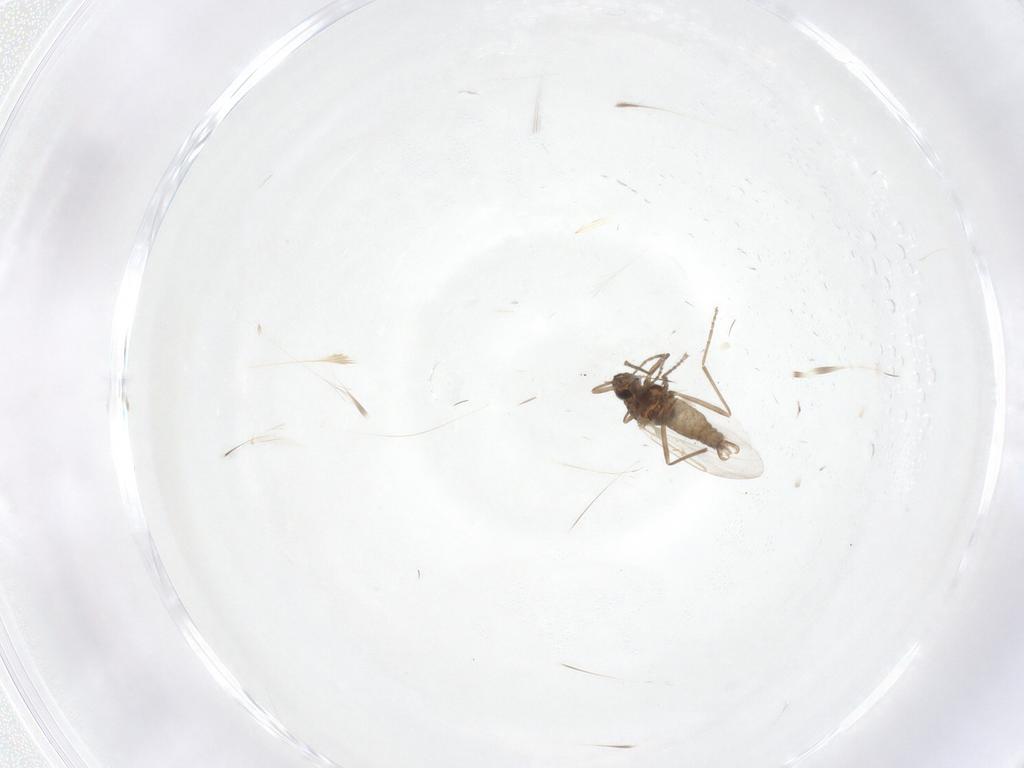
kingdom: Animalia
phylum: Arthropoda
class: Insecta
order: Diptera
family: Cecidomyiidae
